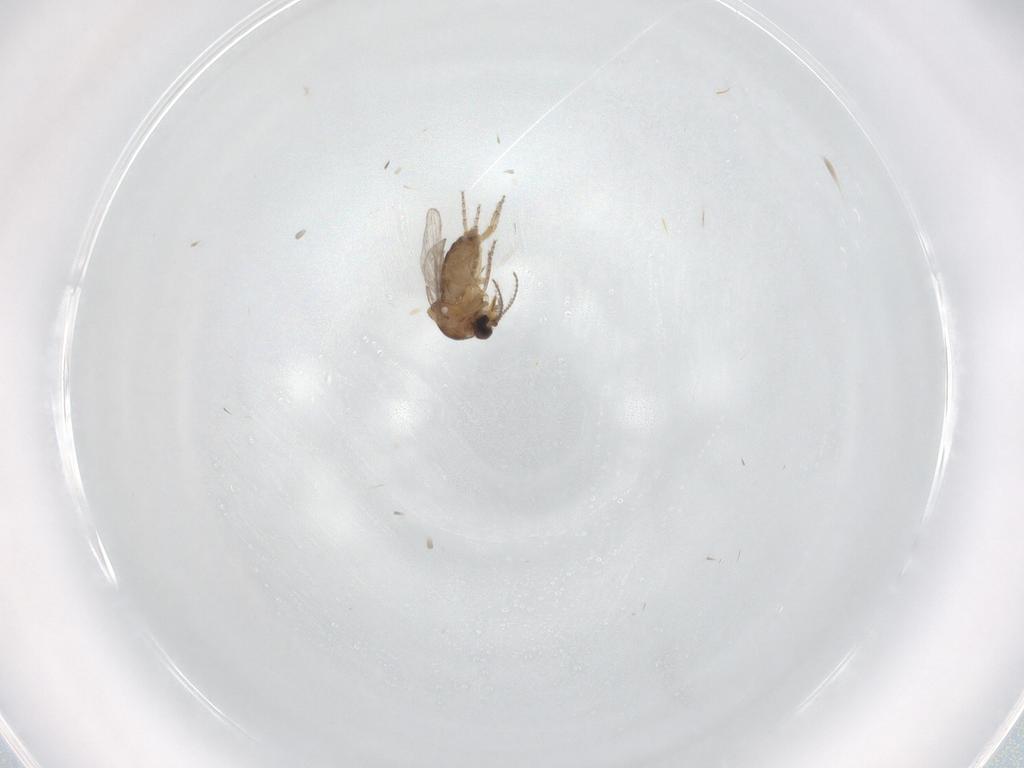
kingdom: Animalia
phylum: Arthropoda
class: Insecta
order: Diptera
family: Ceratopogonidae
